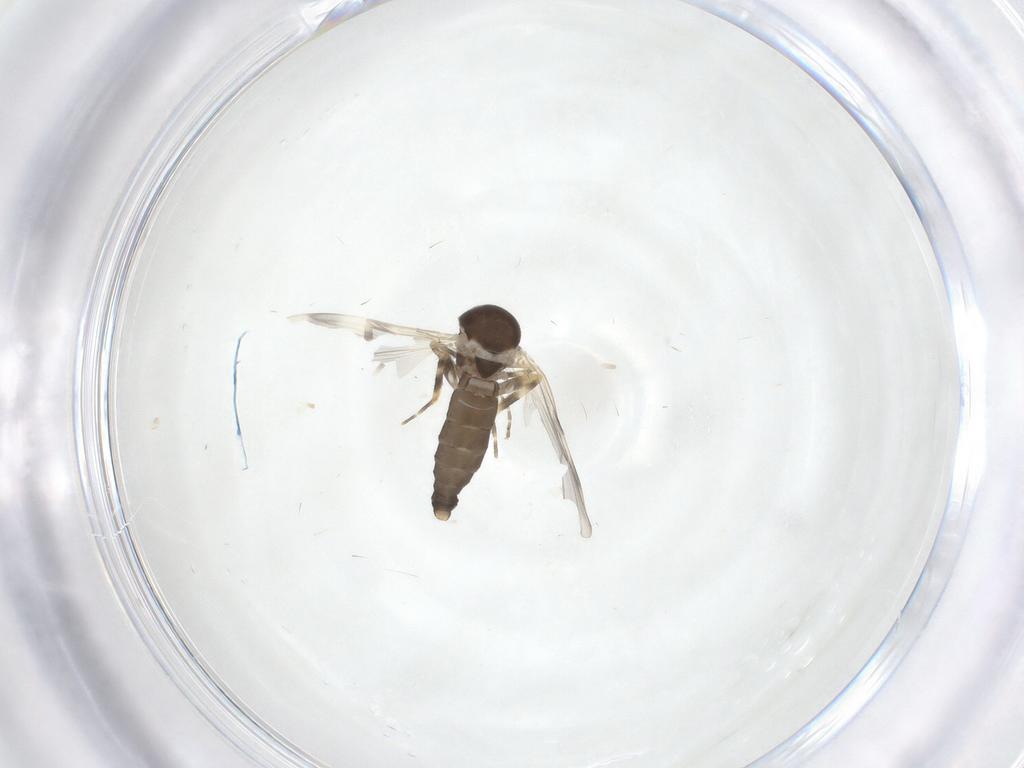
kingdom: Animalia
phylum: Arthropoda
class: Insecta
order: Diptera
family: Ceratopogonidae
